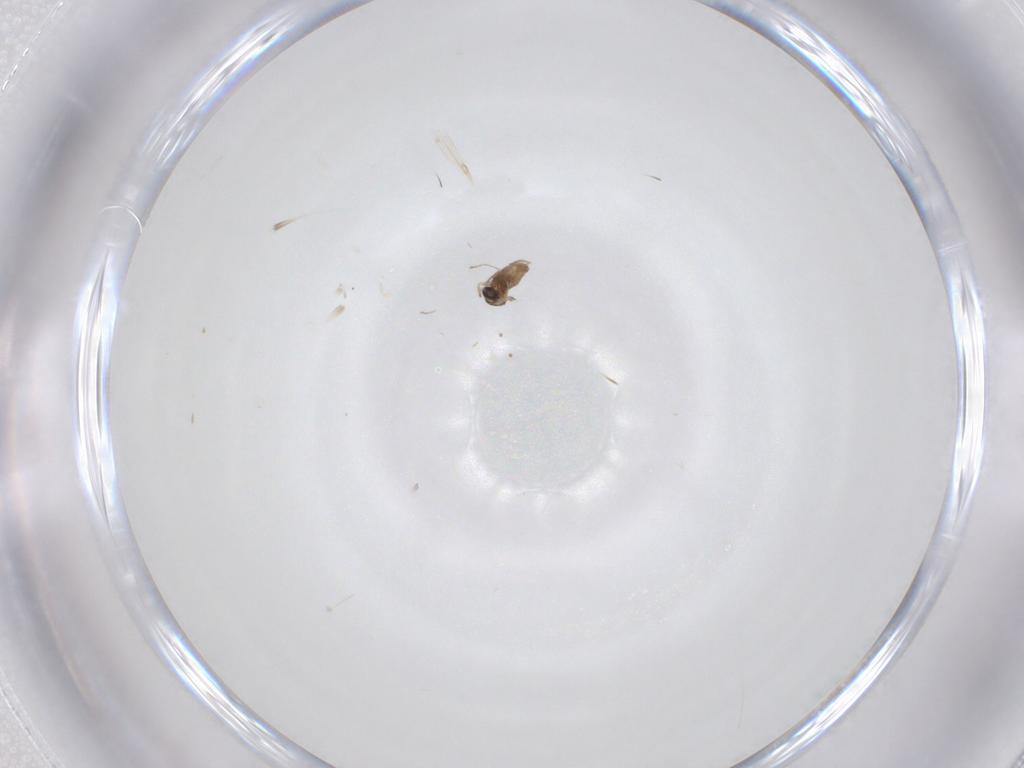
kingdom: Animalia
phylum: Arthropoda
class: Insecta
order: Diptera
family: Cecidomyiidae
